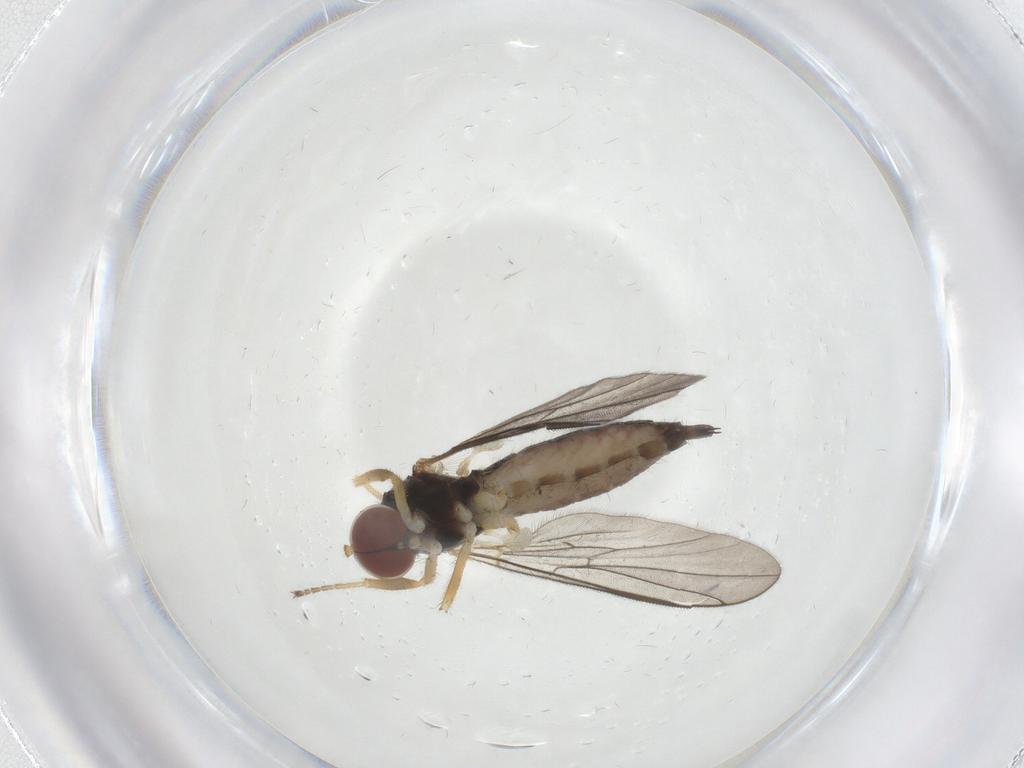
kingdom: Animalia
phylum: Arthropoda
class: Insecta
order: Diptera
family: Hybotidae
